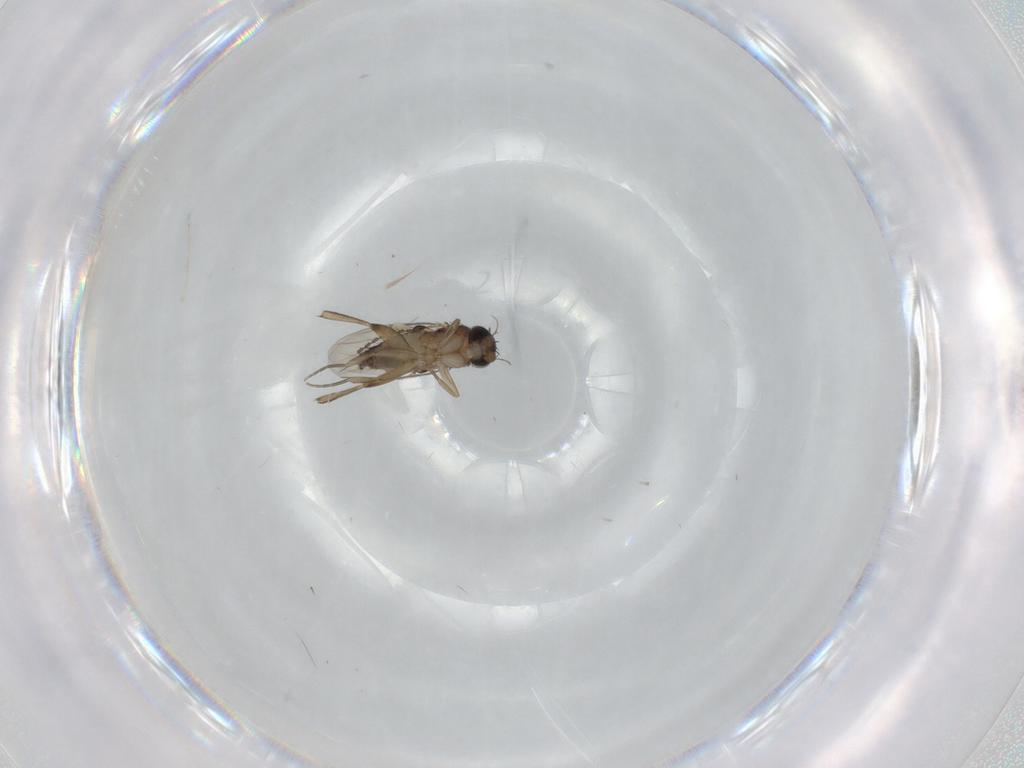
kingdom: Animalia
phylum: Arthropoda
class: Insecta
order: Diptera
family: Phoridae
